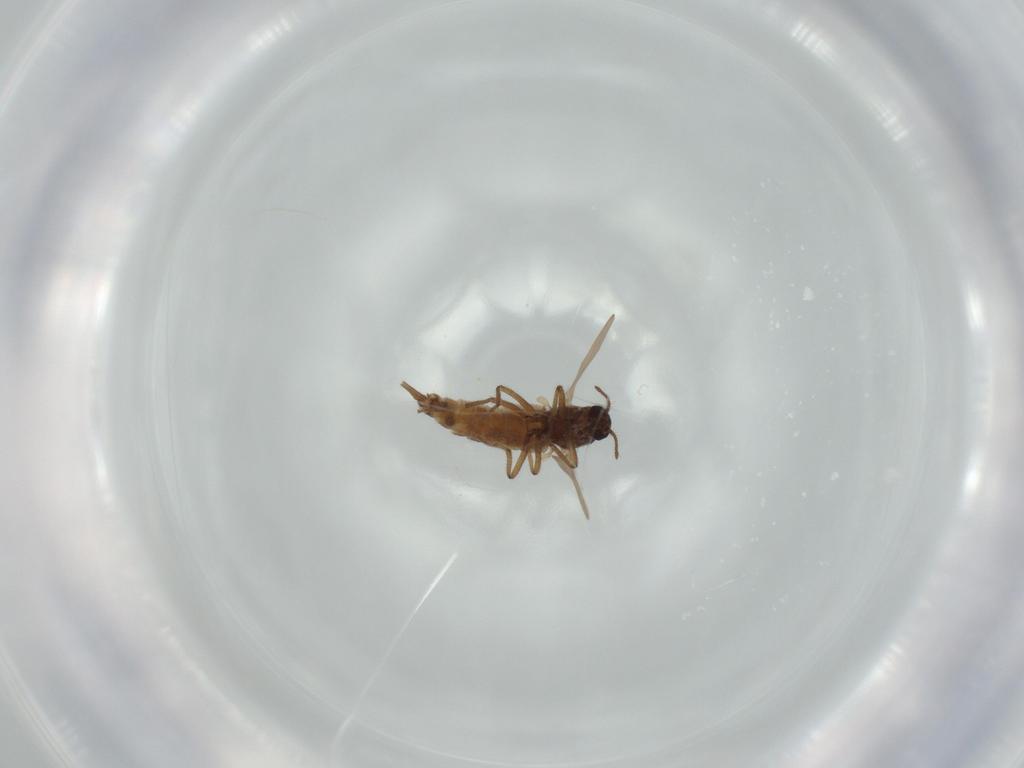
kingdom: Animalia
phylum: Arthropoda
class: Insecta
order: Diptera
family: Ceratopogonidae
